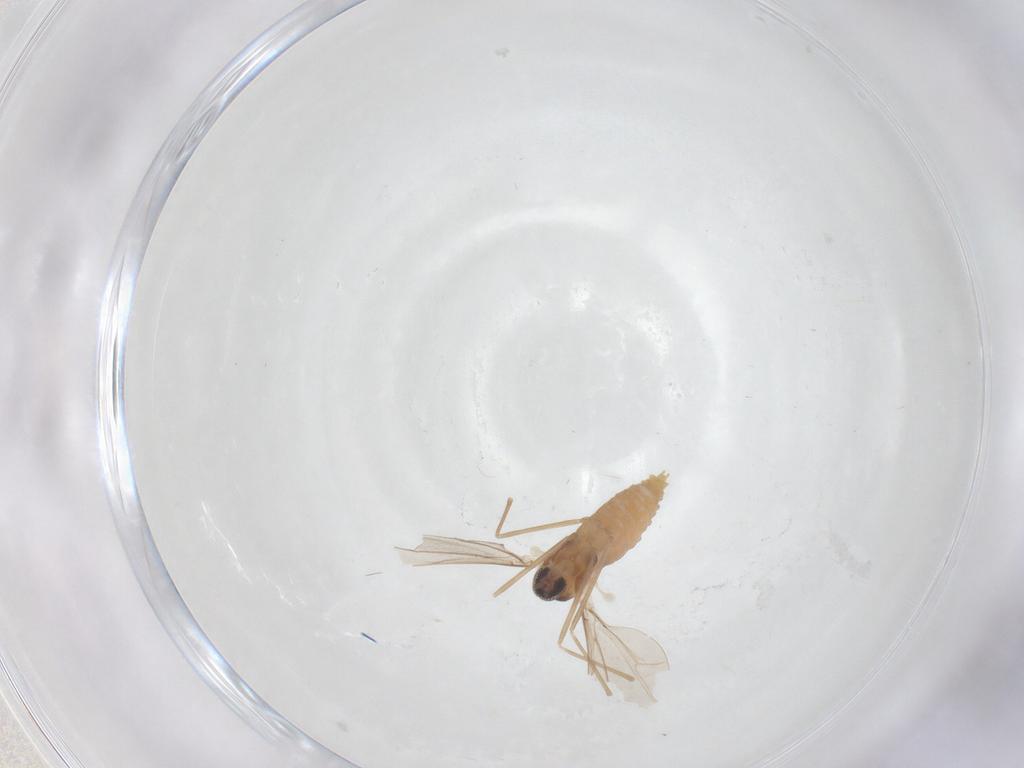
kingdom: Animalia
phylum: Arthropoda
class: Insecta
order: Diptera
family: Cecidomyiidae
